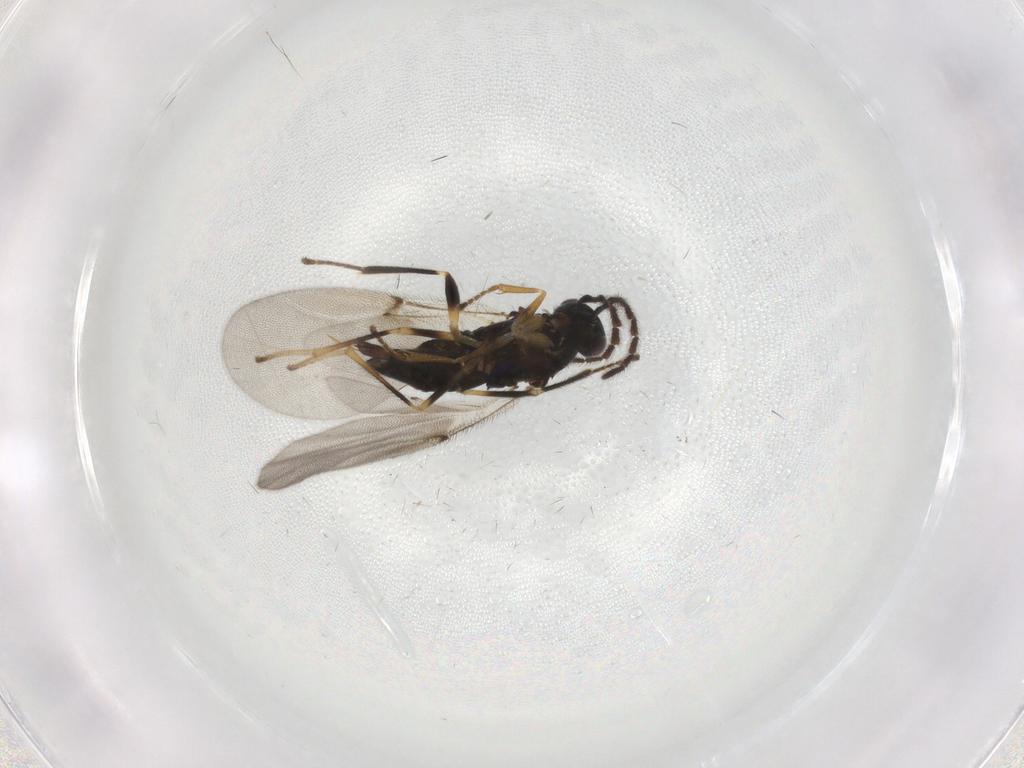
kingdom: Animalia
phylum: Arthropoda
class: Insecta
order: Hymenoptera
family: Encyrtidae
